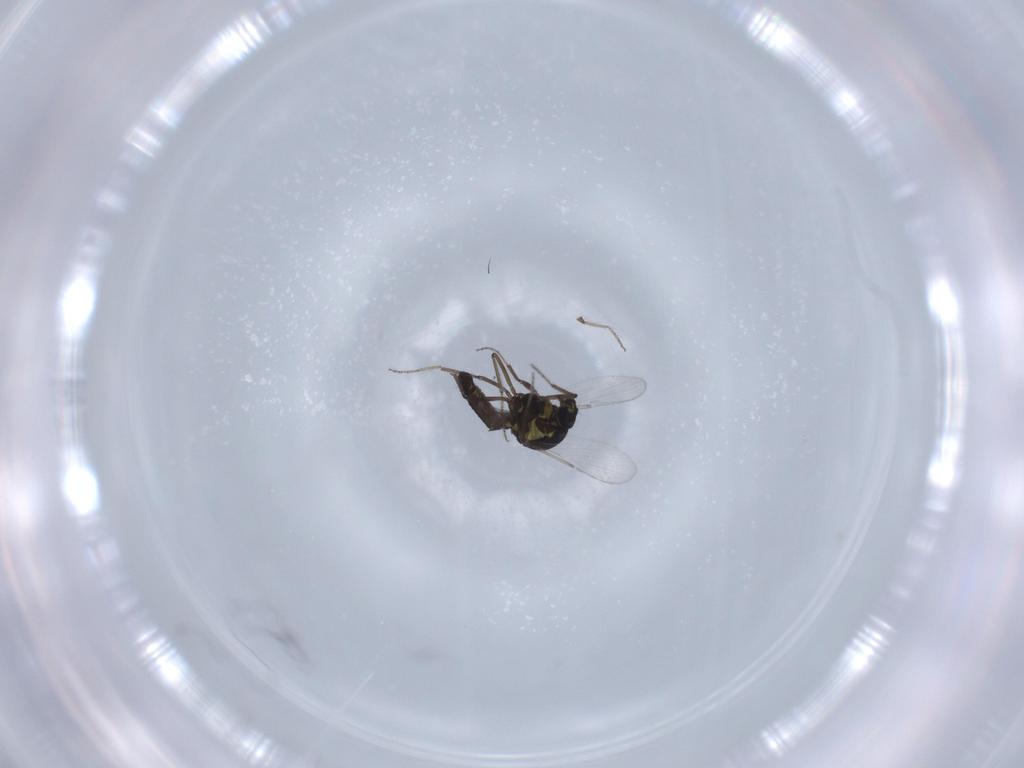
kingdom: Animalia
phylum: Arthropoda
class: Insecta
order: Diptera
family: Ceratopogonidae
